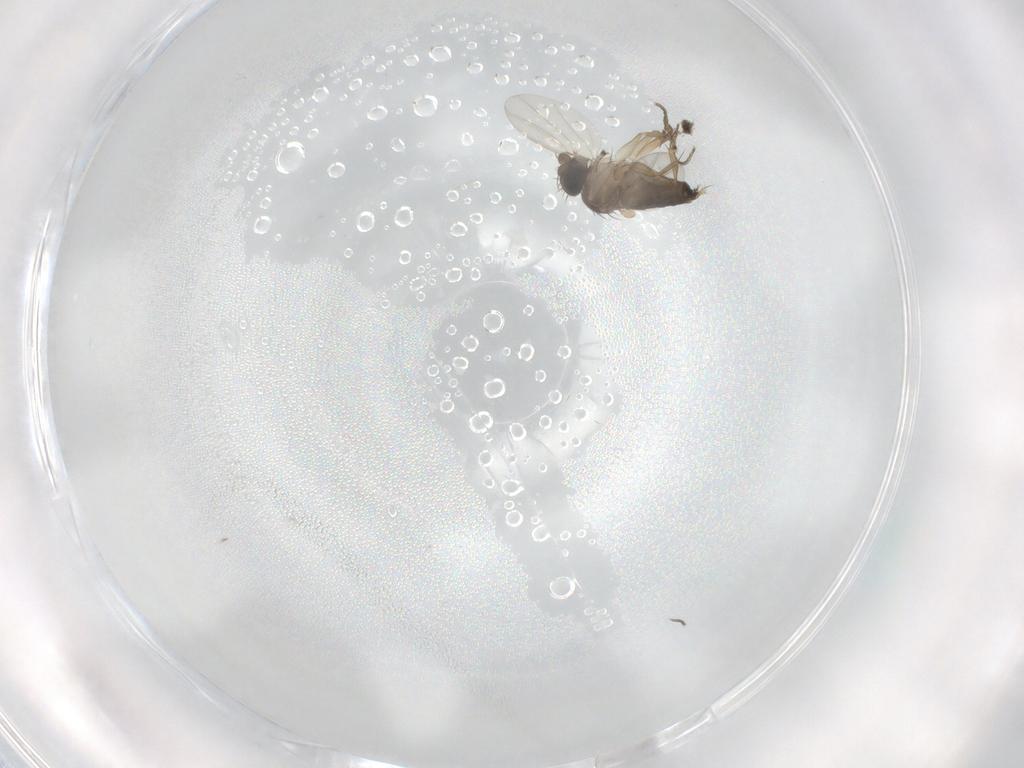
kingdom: Animalia
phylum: Arthropoda
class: Insecta
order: Diptera
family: Phoridae
